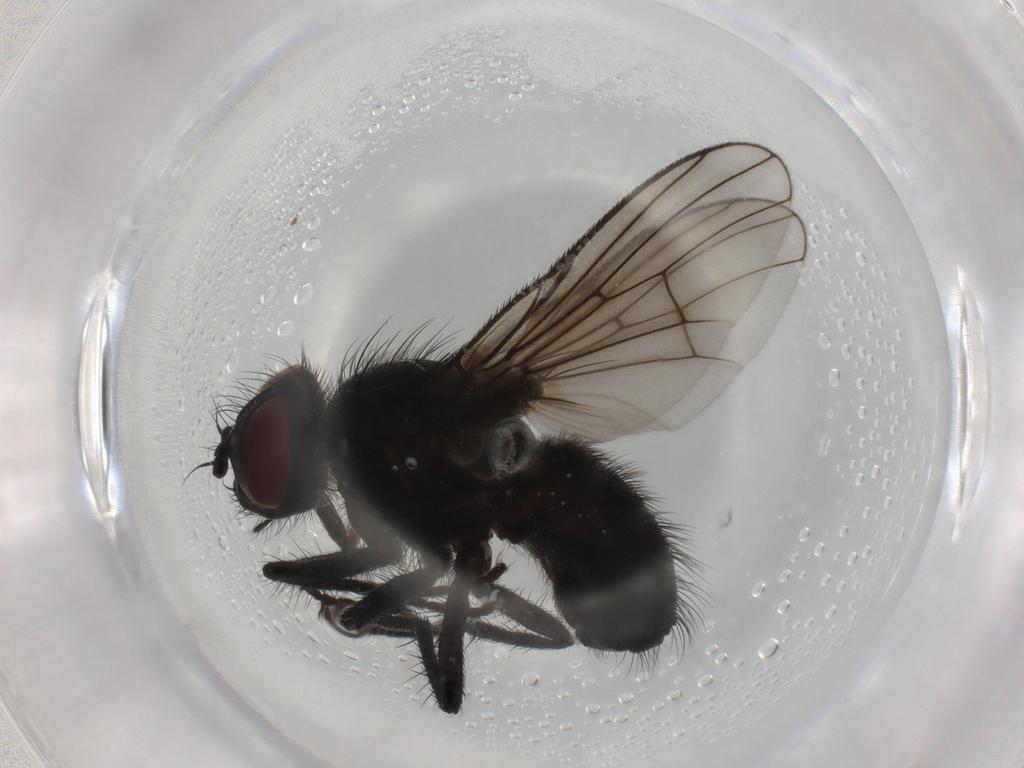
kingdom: Animalia
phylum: Arthropoda
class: Insecta
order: Diptera
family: Muscidae
